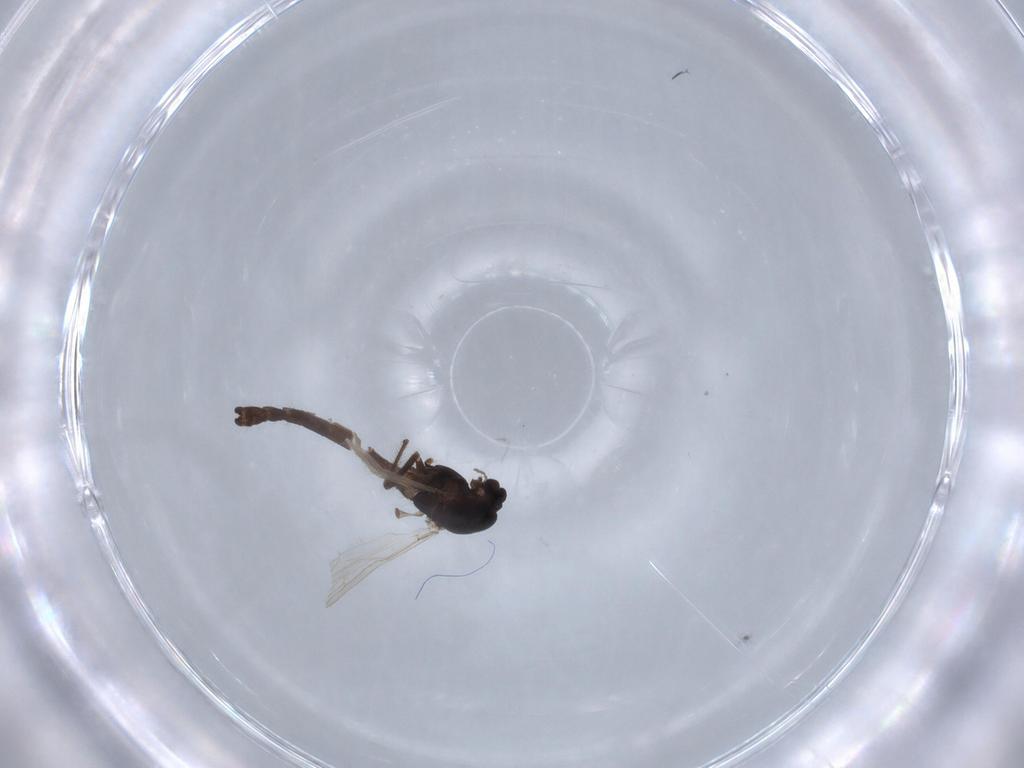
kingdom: Animalia
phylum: Arthropoda
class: Insecta
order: Diptera
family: Chironomidae
